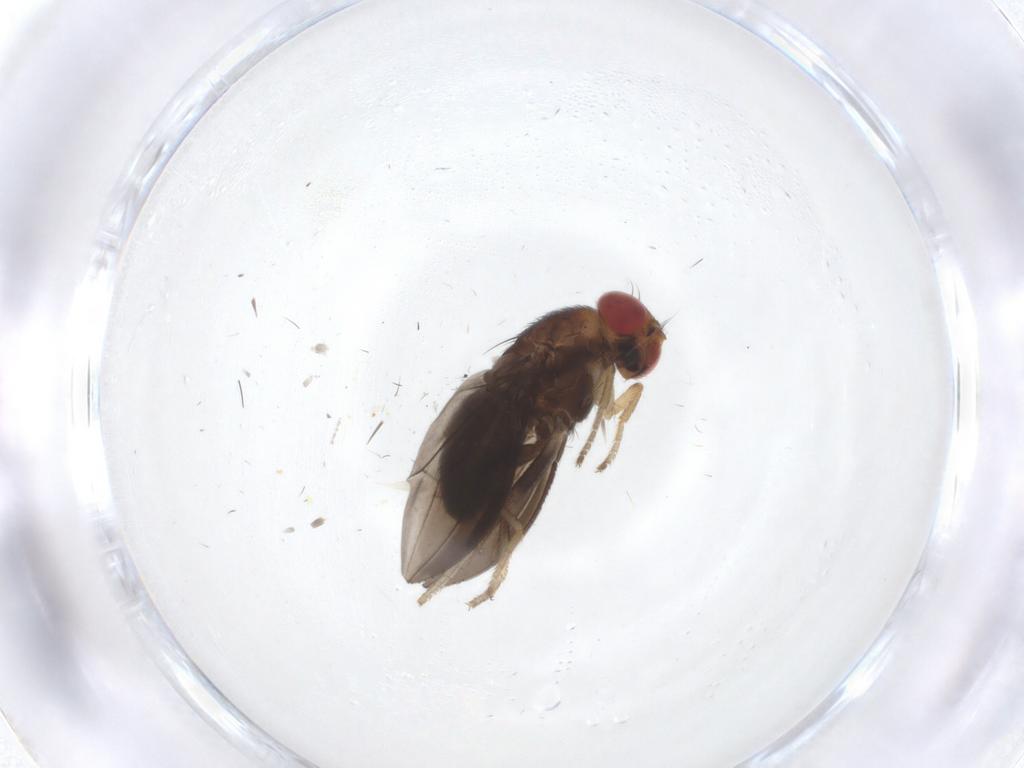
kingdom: Animalia
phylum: Arthropoda
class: Insecta
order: Diptera
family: Drosophilidae
